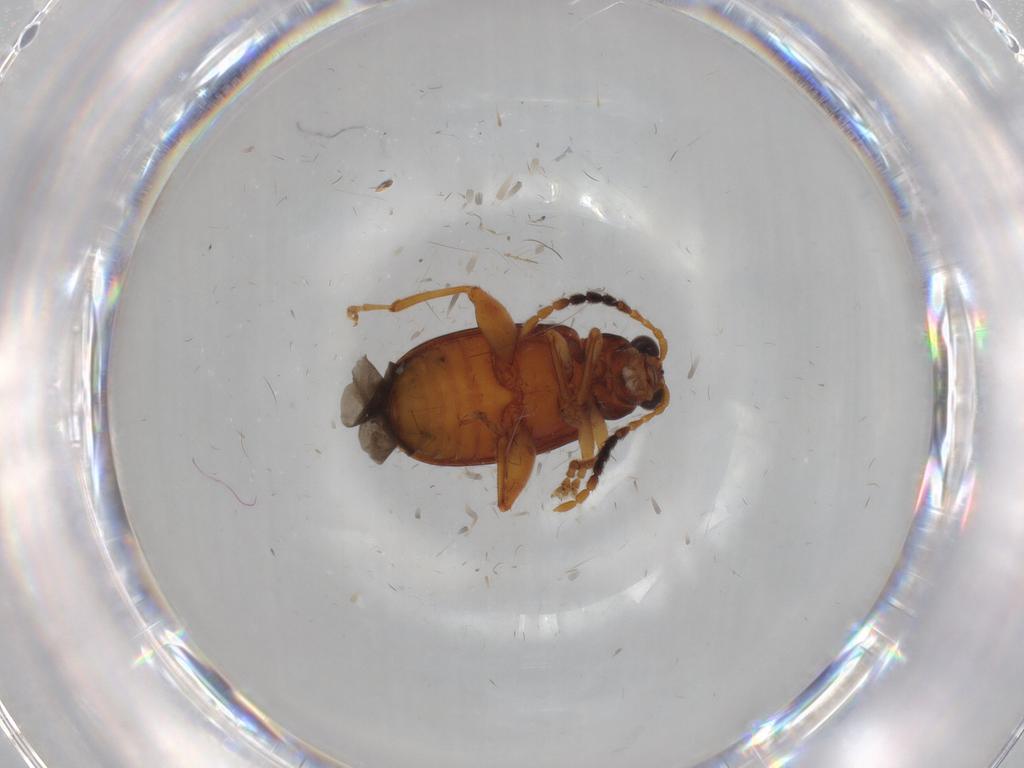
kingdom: Animalia
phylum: Arthropoda
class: Insecta
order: Coleoptera
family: Chrysomelidae
